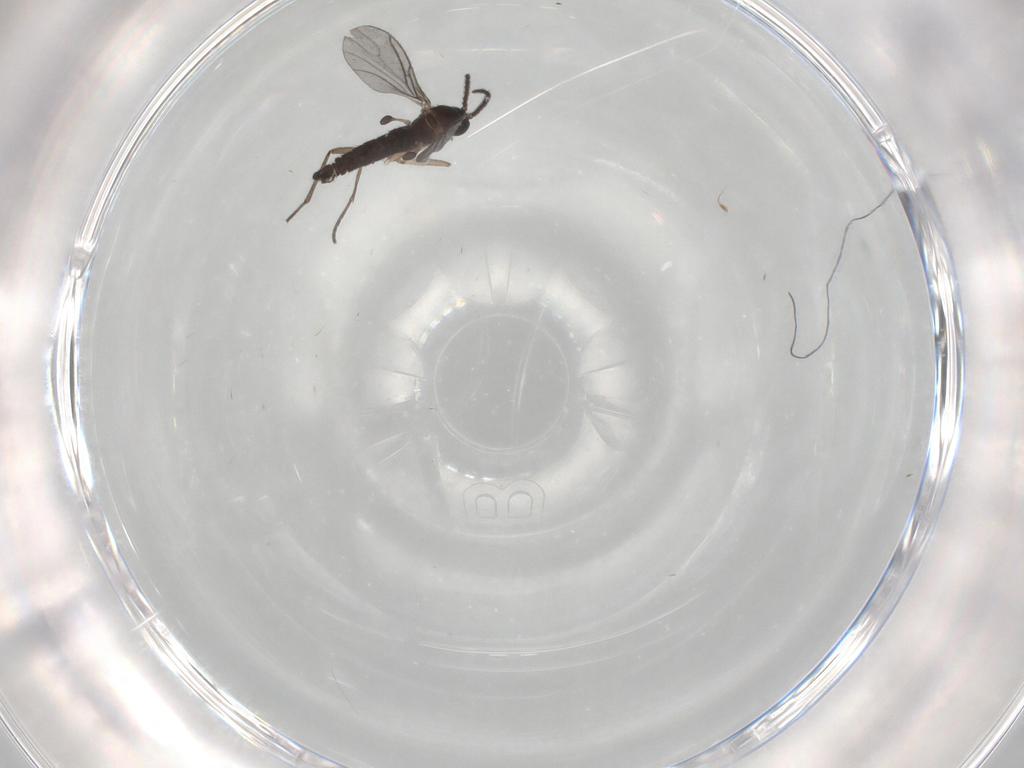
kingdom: Animalia
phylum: Arthropoda
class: Insecta
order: Diptera
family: Sciaridae
